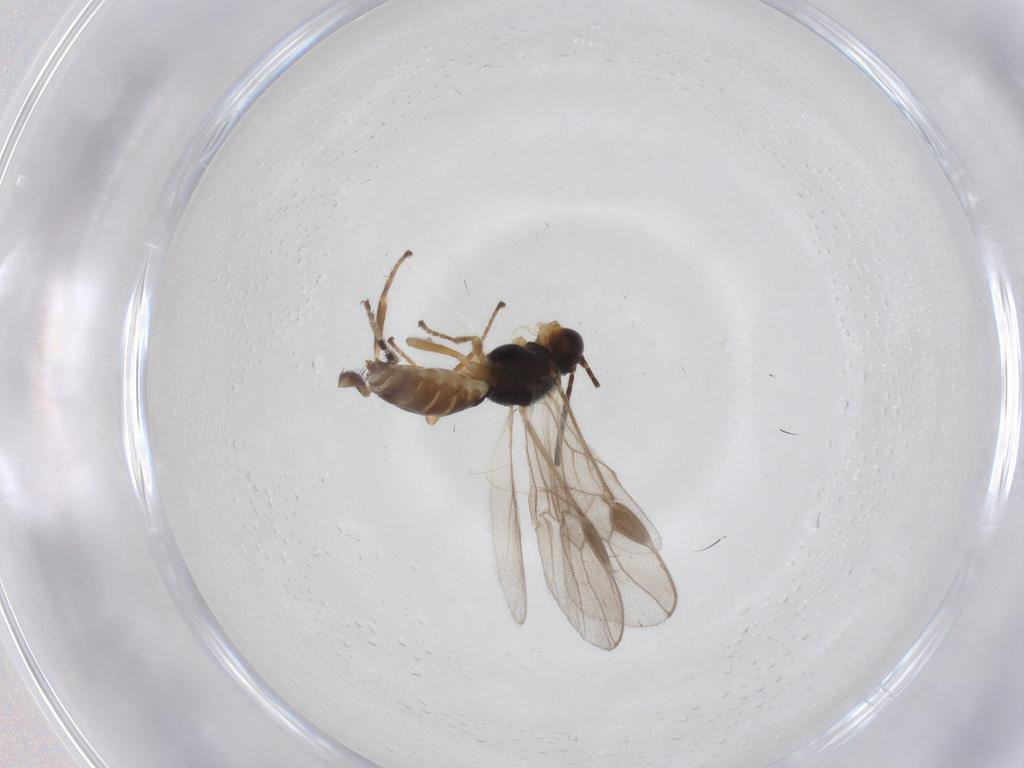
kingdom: Animalia
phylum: Arthropoda
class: Insecta
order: Hymenoptera
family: Braconidae
